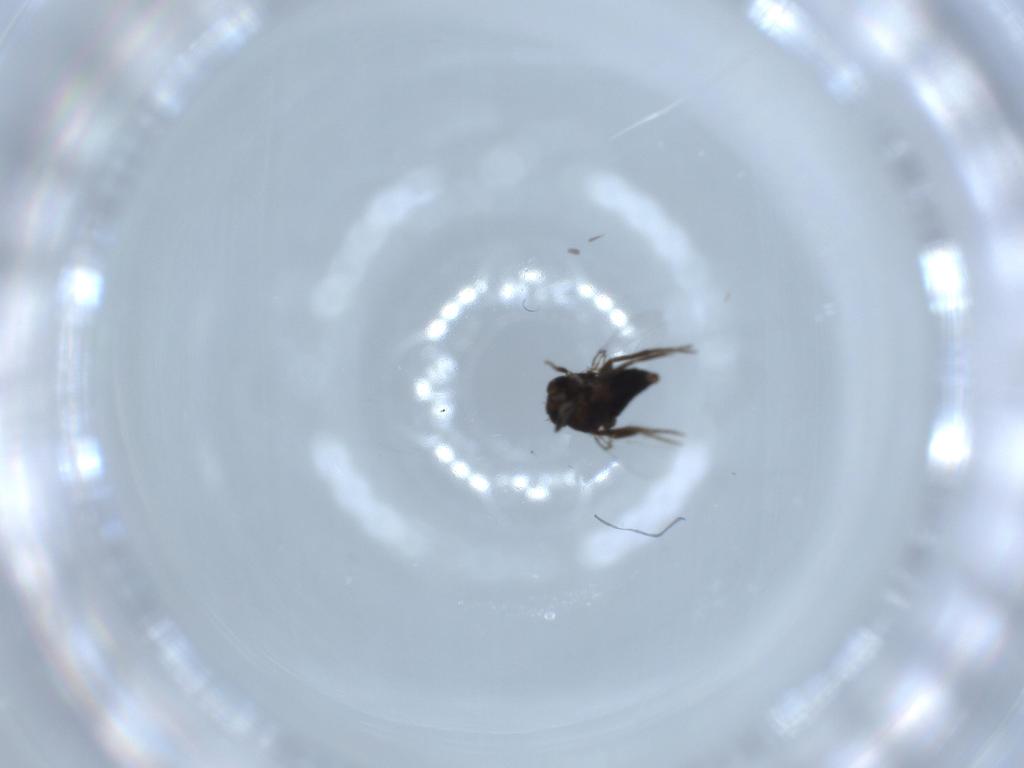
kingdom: Animalia
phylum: Arthropoda
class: Insecta
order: Diptera
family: Phoridae
